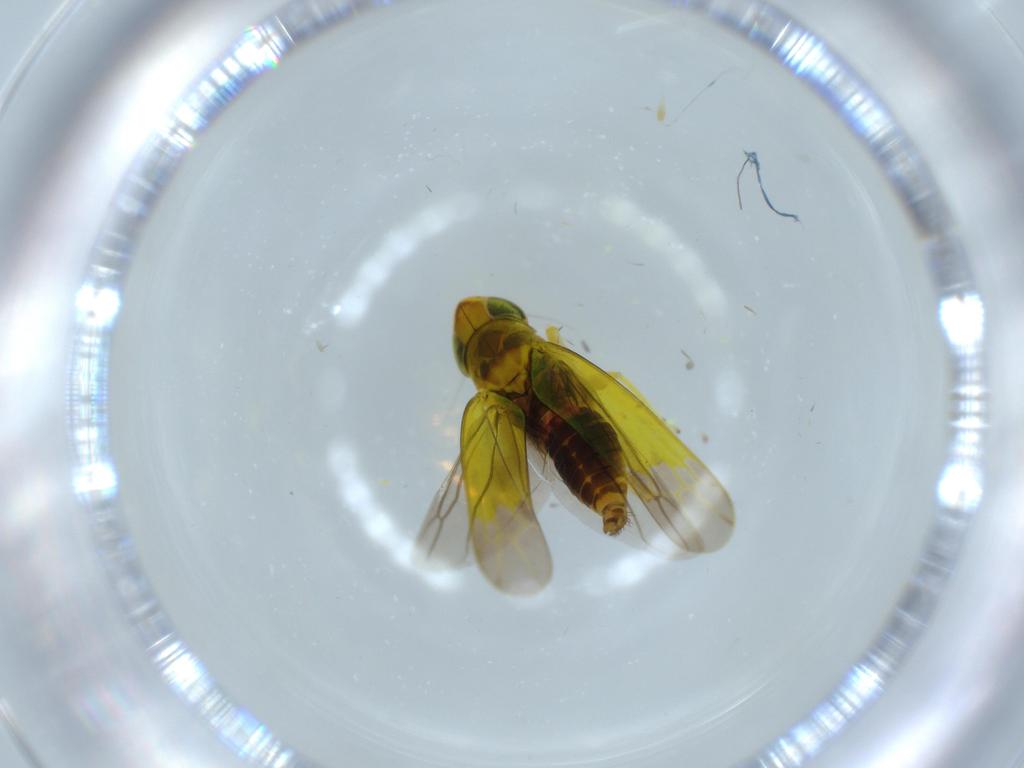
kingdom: Animalia
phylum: Arthropoda
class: Insecta
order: Hemiptera
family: Cicadellidae
